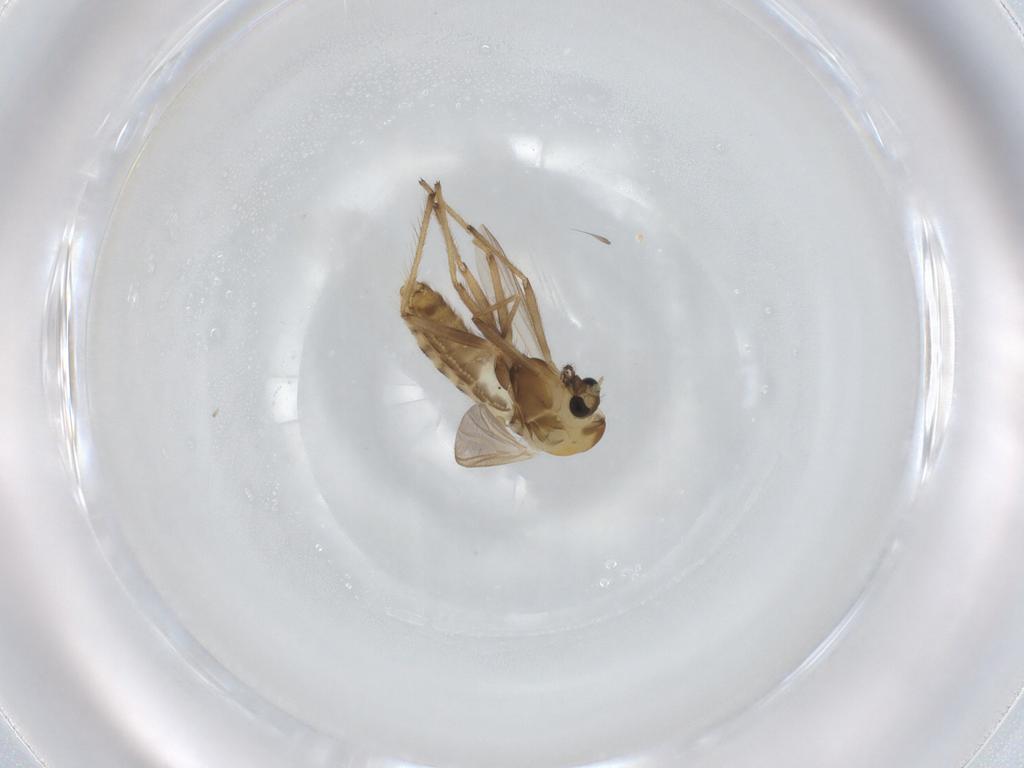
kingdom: Animalia
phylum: Arthropoda
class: Insecta
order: Diptera
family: Chironomidae
